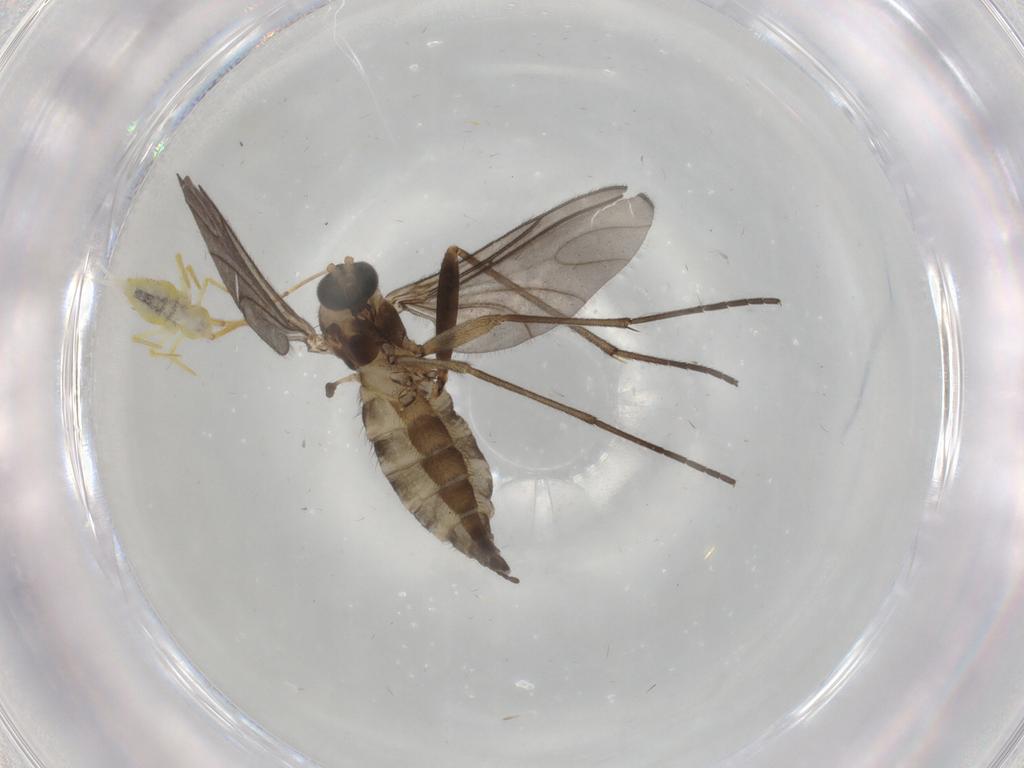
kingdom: Animalia
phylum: Arthropoda
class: Insecta
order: Diptera
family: Sciaridae
